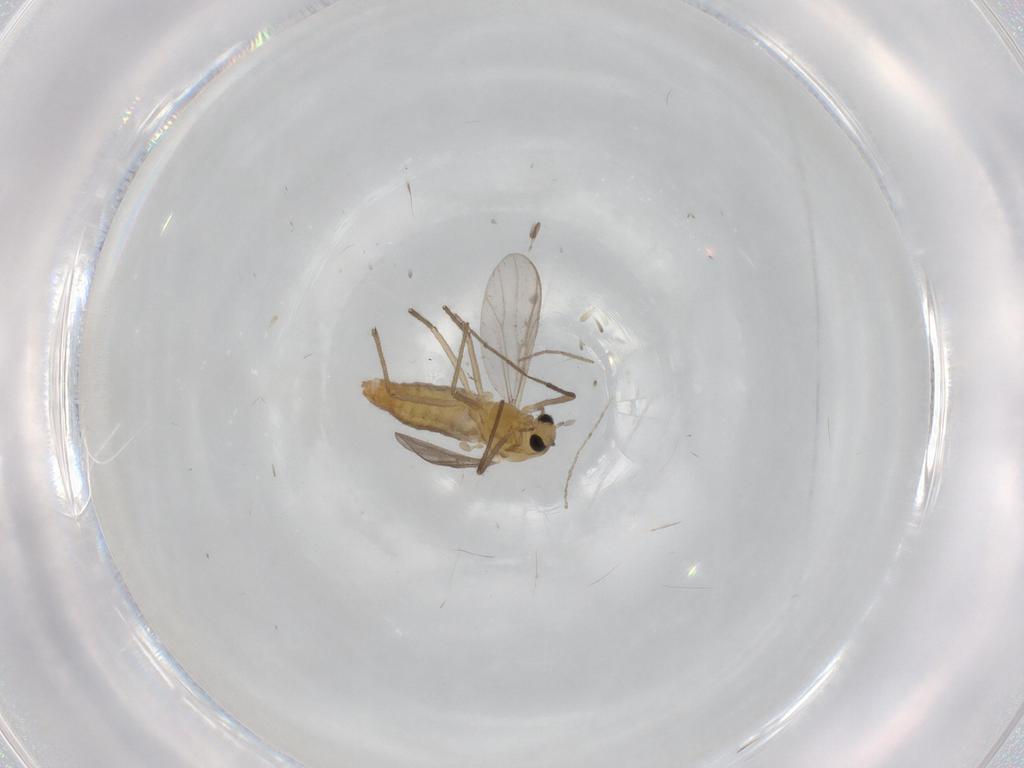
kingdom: Animalia
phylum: Arthropoda
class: Insecta
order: Diptera
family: Chironomidae
